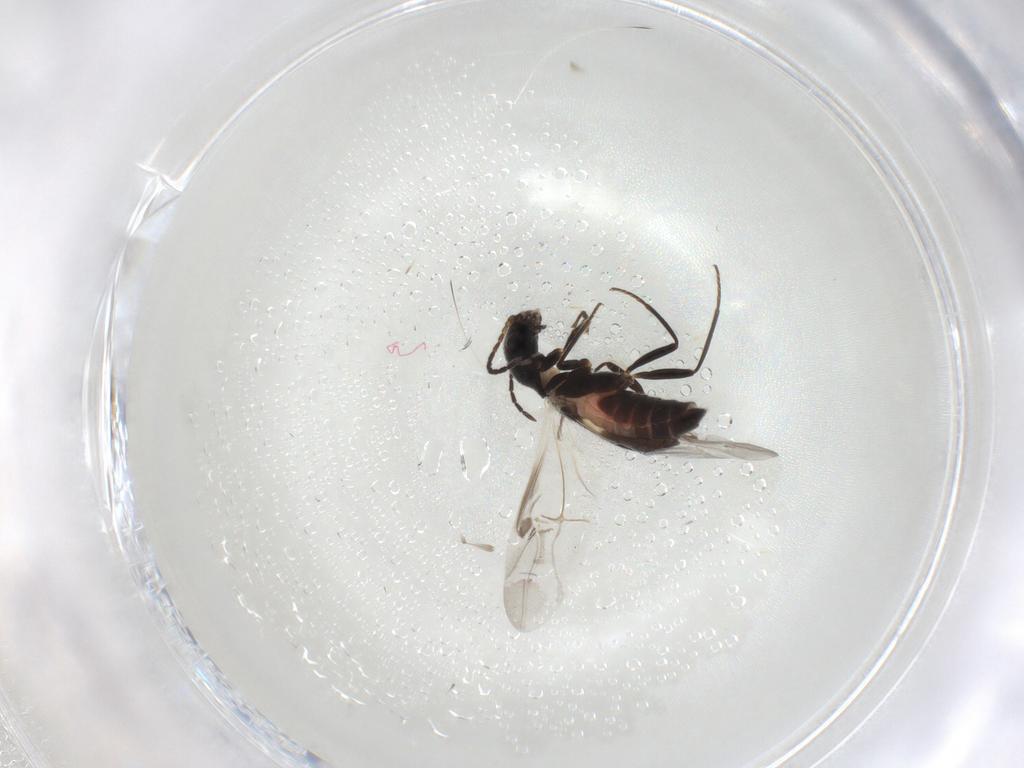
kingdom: Animalia
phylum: Arthropoda
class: Insecta
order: Coleoptera
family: Melyridae
